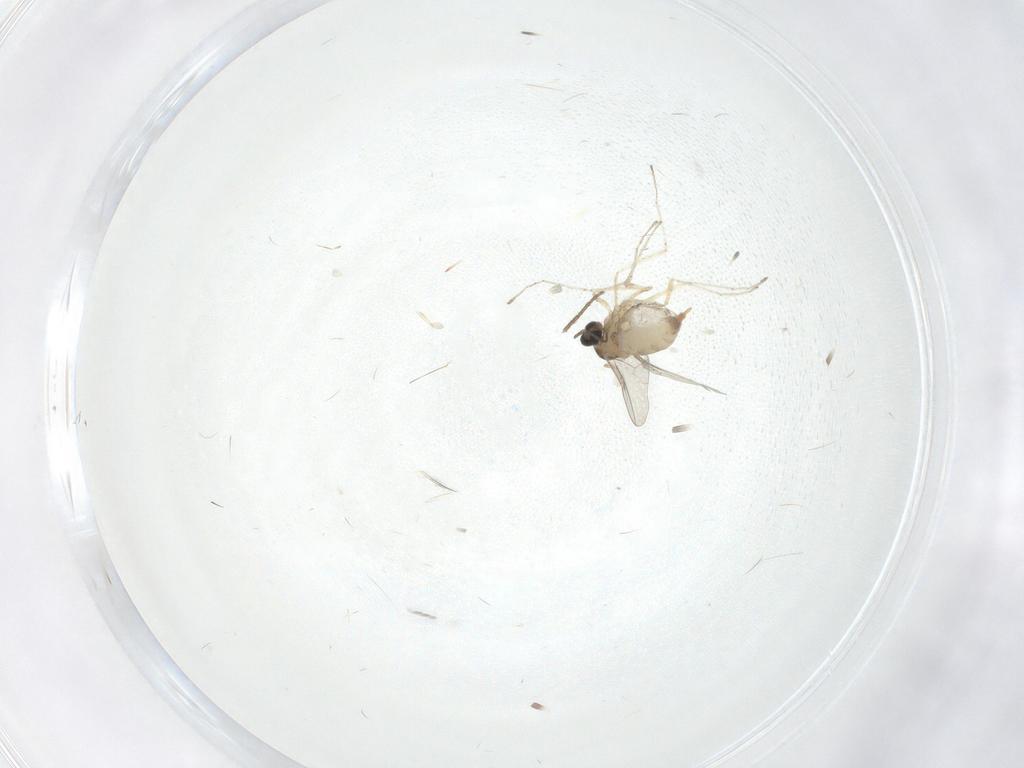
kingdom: Animalia
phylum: Arthropoda
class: Insecta
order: Diptera
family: Chironomidae
